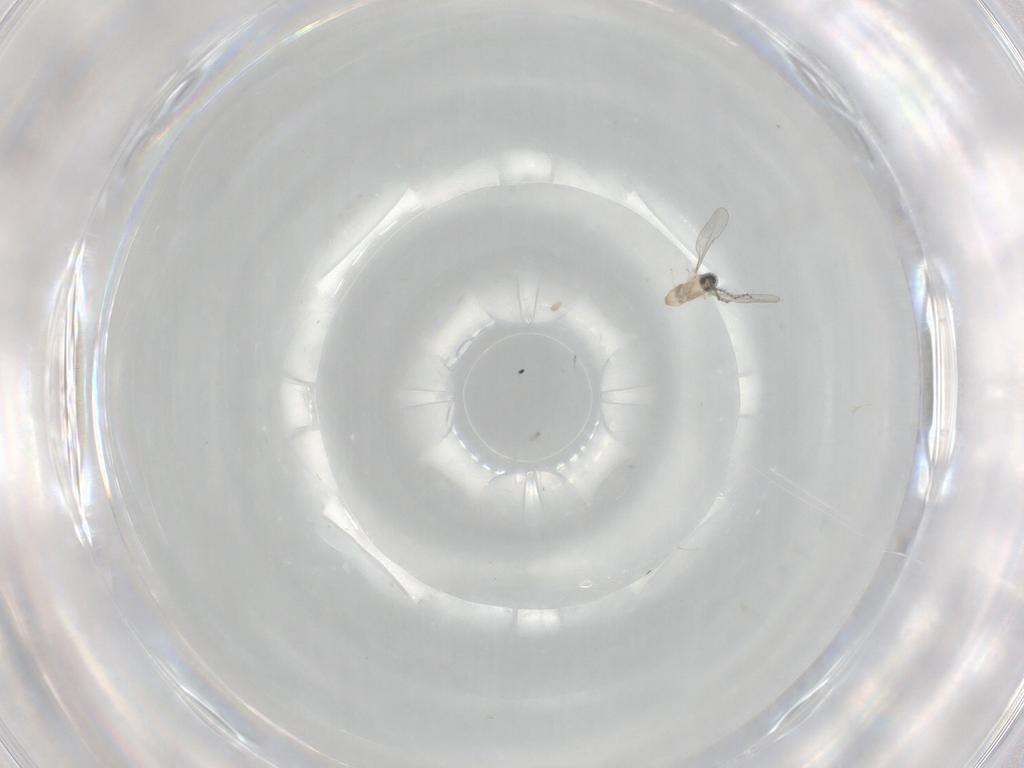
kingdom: Animalia
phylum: Arthropoda
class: Insecta
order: Diptera
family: Cecidomyiidae
